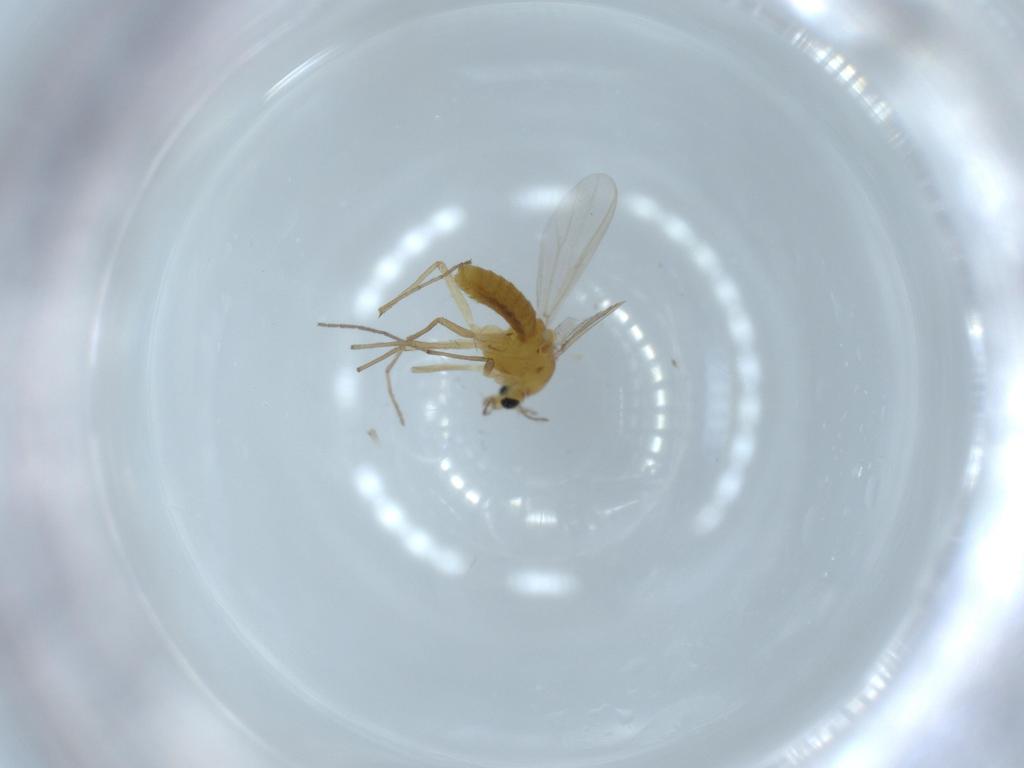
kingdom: Animalia
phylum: Arthropoda
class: Insecta
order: Diptera
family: Chironomidae
